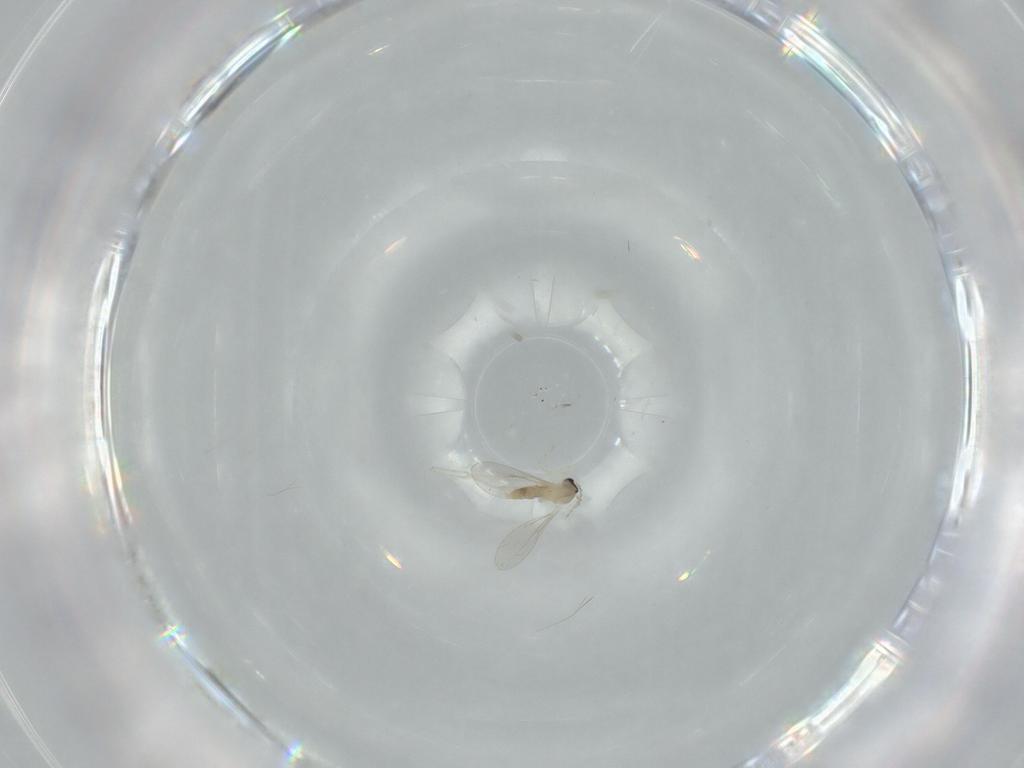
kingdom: Animalia
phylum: Arthropoda
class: Insecta
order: Diptera
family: Cecidomyiidae
